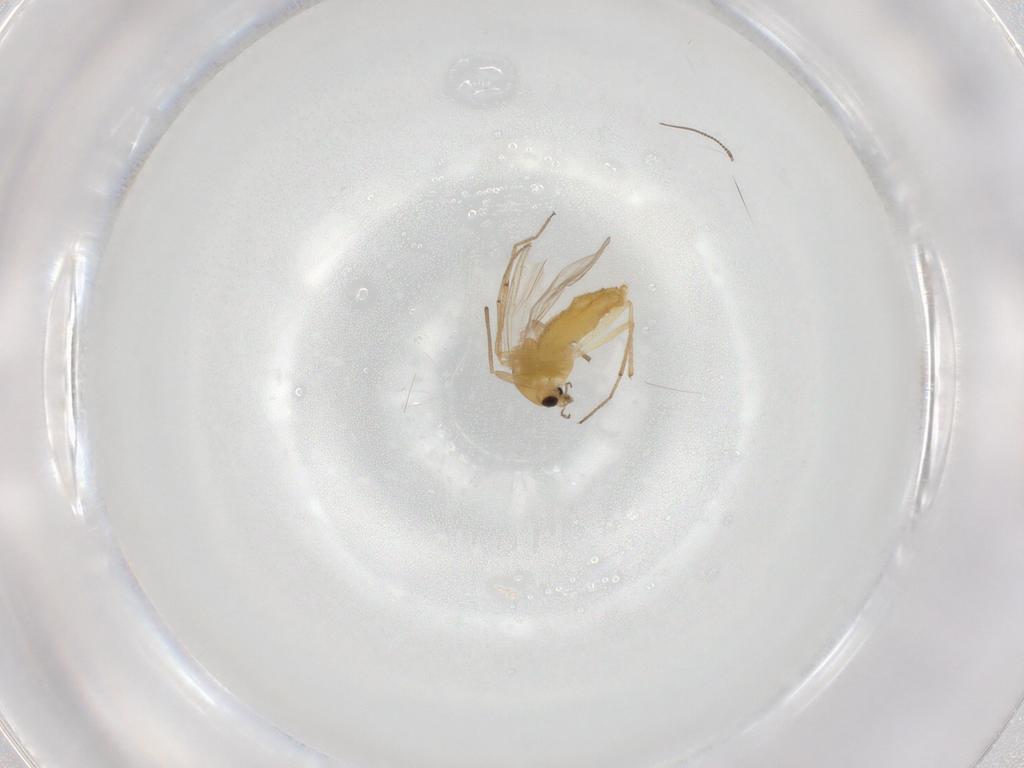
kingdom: Animalia
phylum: Arthropoda
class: Insecta
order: Diptera
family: Chironomidae
